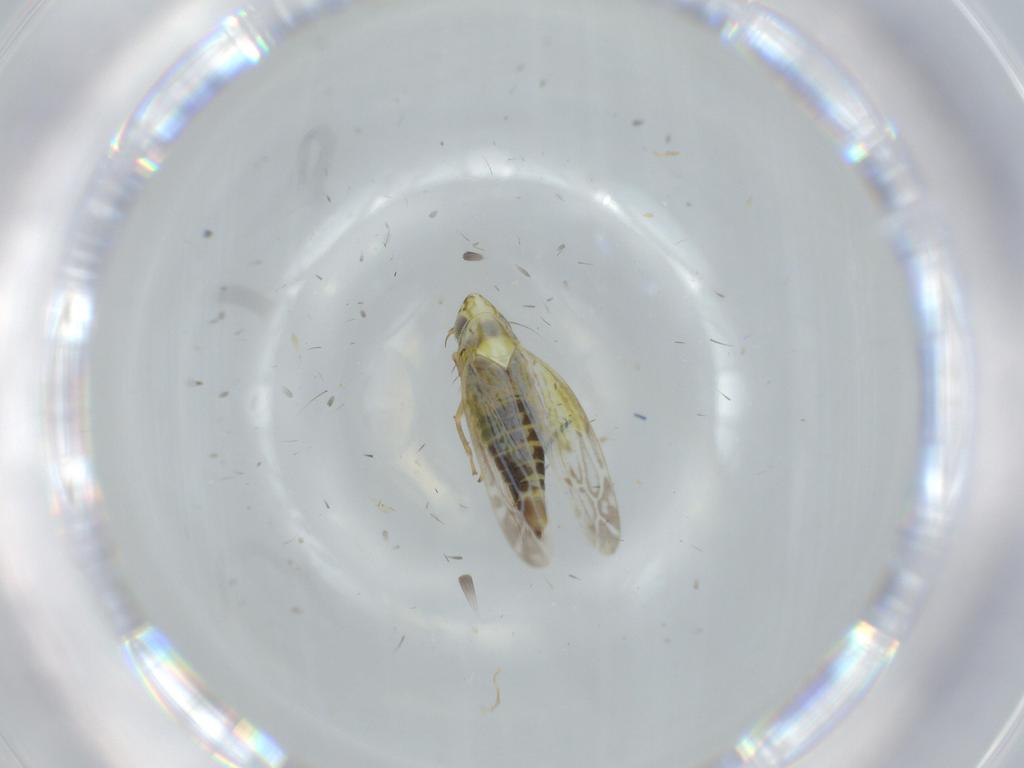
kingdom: Animalia
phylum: Arthropoda
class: Insecta
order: Hemiptera
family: Cicadellidae
